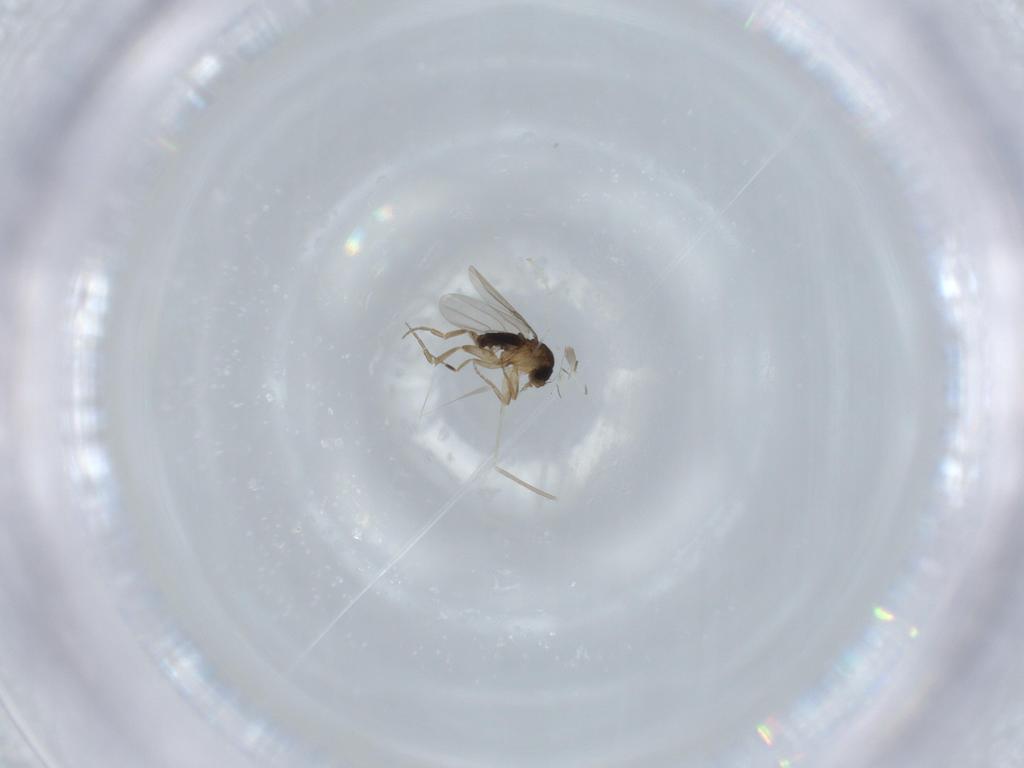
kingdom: Animalia
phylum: Arthropoda
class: Insecta
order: Diptera
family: Cecidomyiidae
